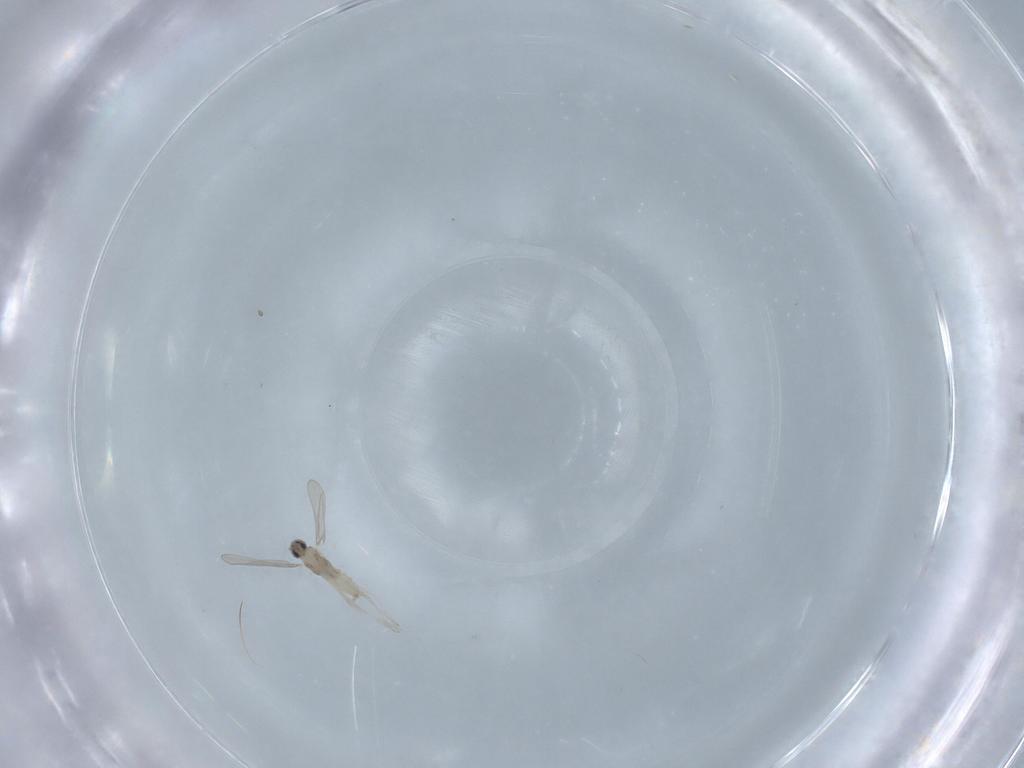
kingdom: Animalia
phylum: Arthropoda
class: Insecta
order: Diptera
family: Cecidomyiidae
